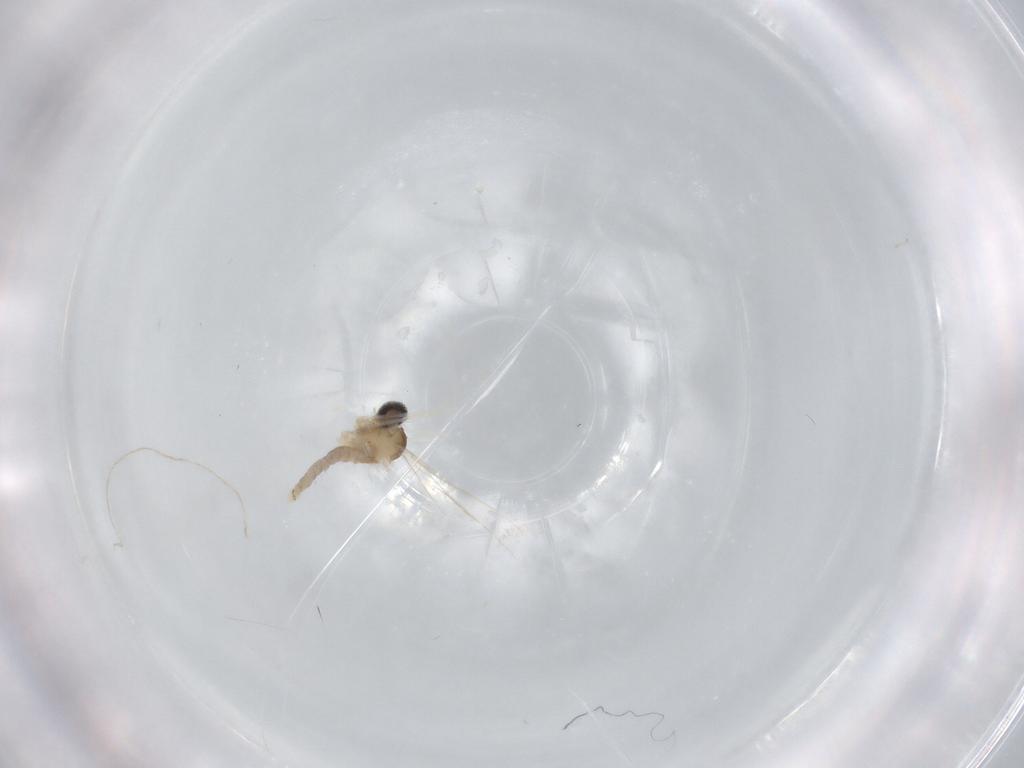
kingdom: Animalia
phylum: Arthropoda
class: Insecta
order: Diptera
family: Cecidomyiidae
